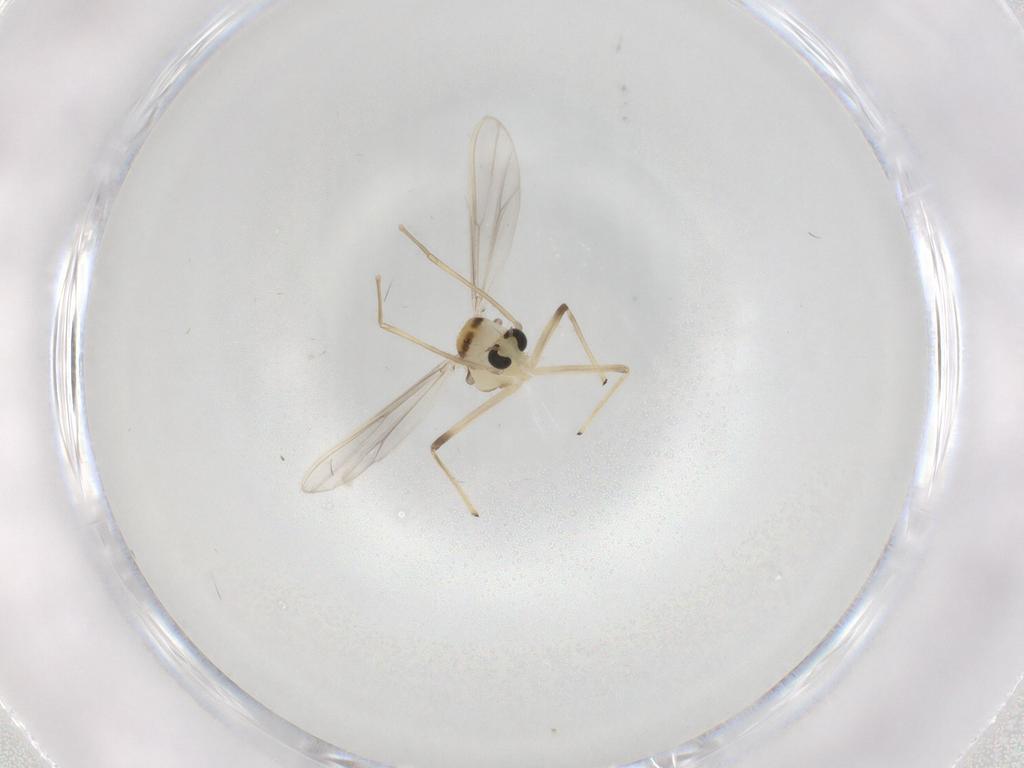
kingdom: Animalia
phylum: Arthropoda
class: Insecta
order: Diptera
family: Chironomidae
